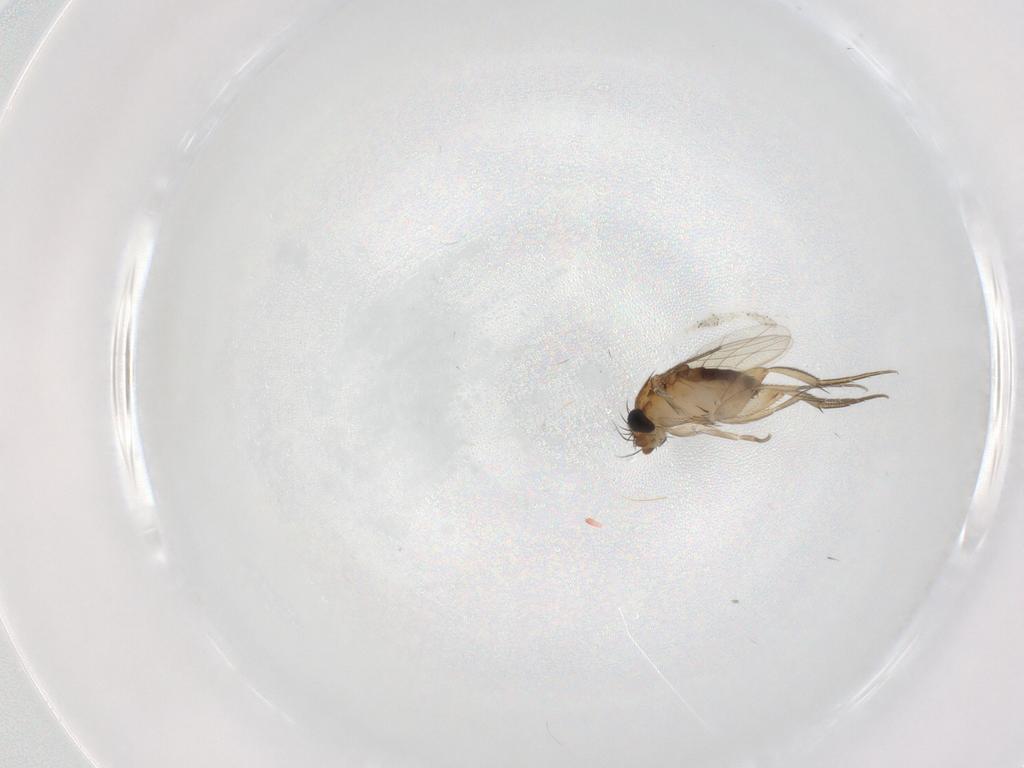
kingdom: Animalia
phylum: Arthropoda
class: Insecta
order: Diptera
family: Phoridae
